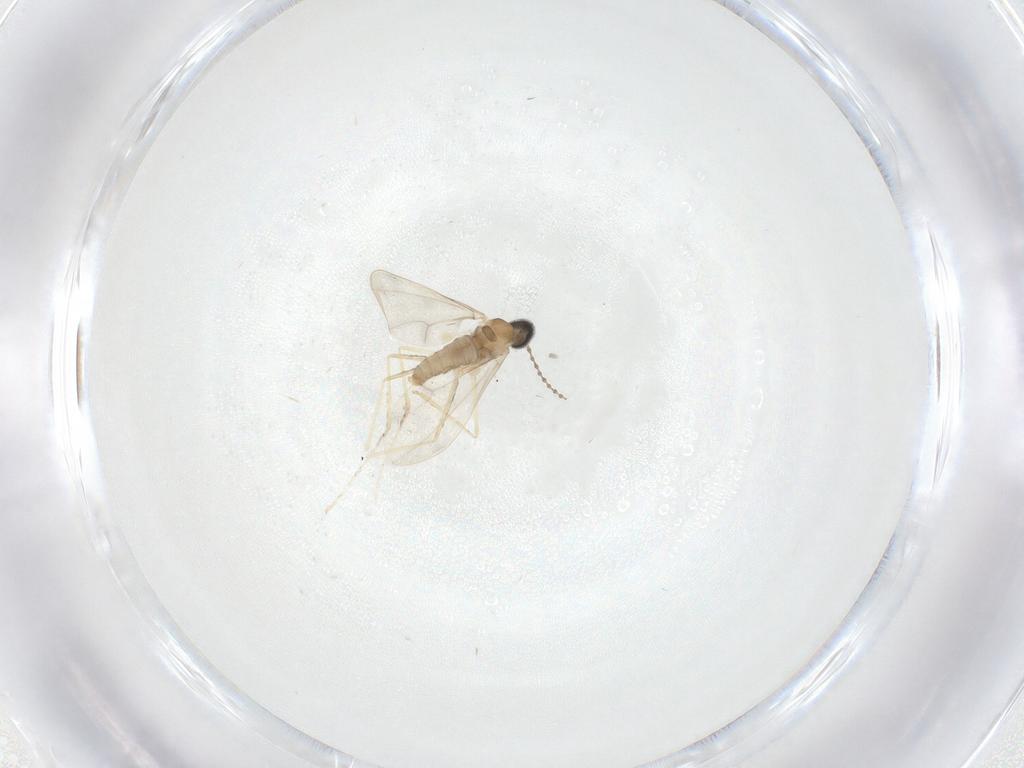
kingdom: Animalia
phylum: Arthropoda
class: Insecta
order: Diptera
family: Cecidomyiidae
